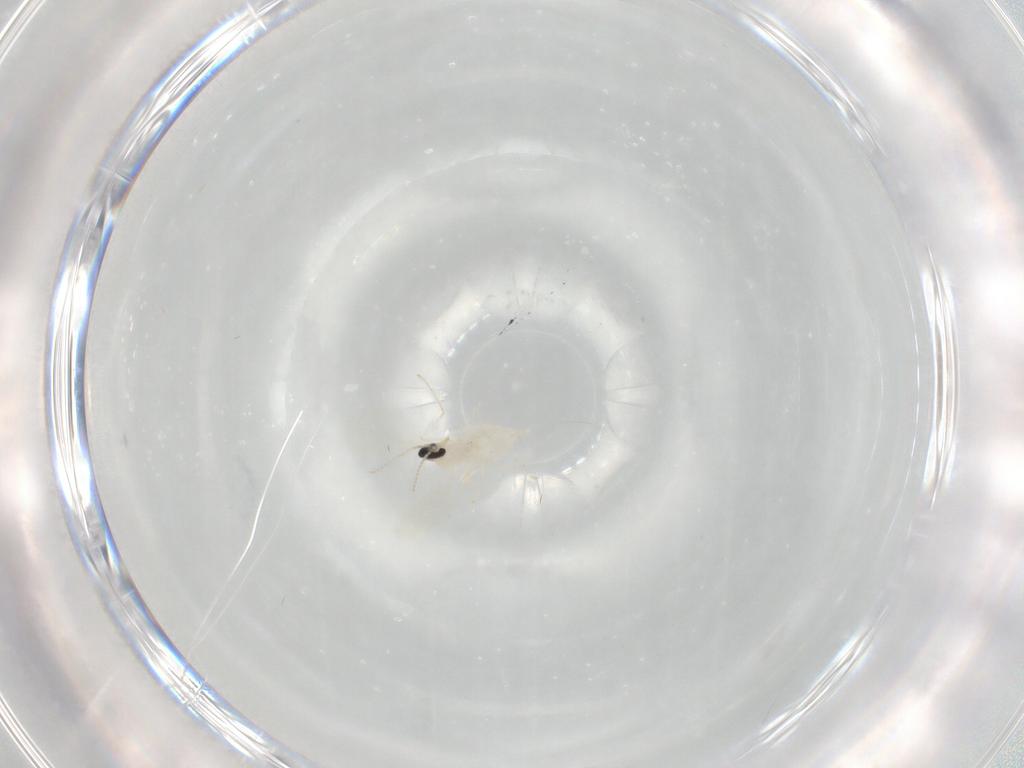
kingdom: Animalia
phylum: Arthropoda
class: Insecta
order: Diptera
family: Cecidomyiidae
